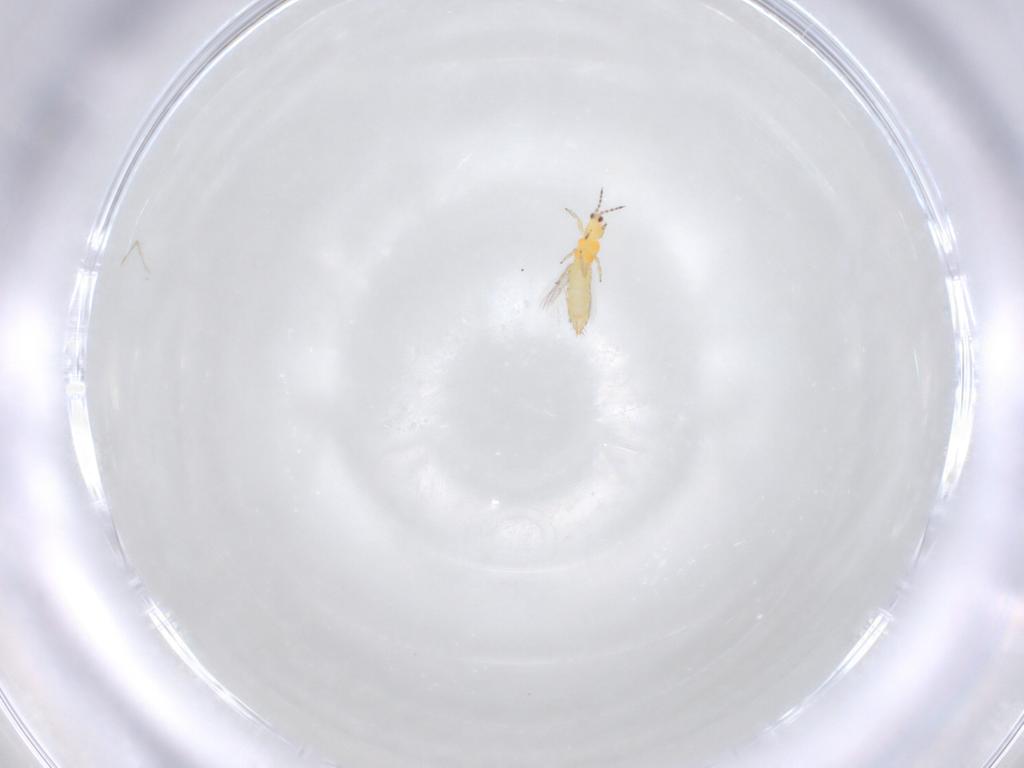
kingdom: Animalia
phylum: Arthropoda
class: Insecta
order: Thysanoptera
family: Thripidae
